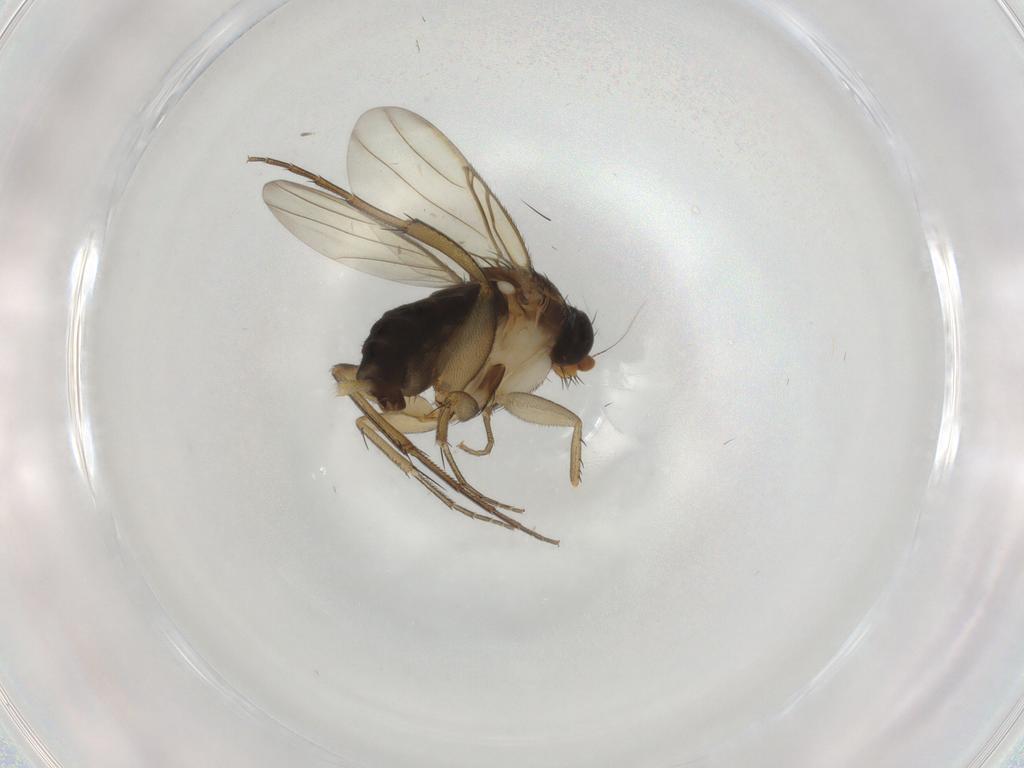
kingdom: Animalia
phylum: Arthropoda
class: Insecta
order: Diptera
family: Phoridae
